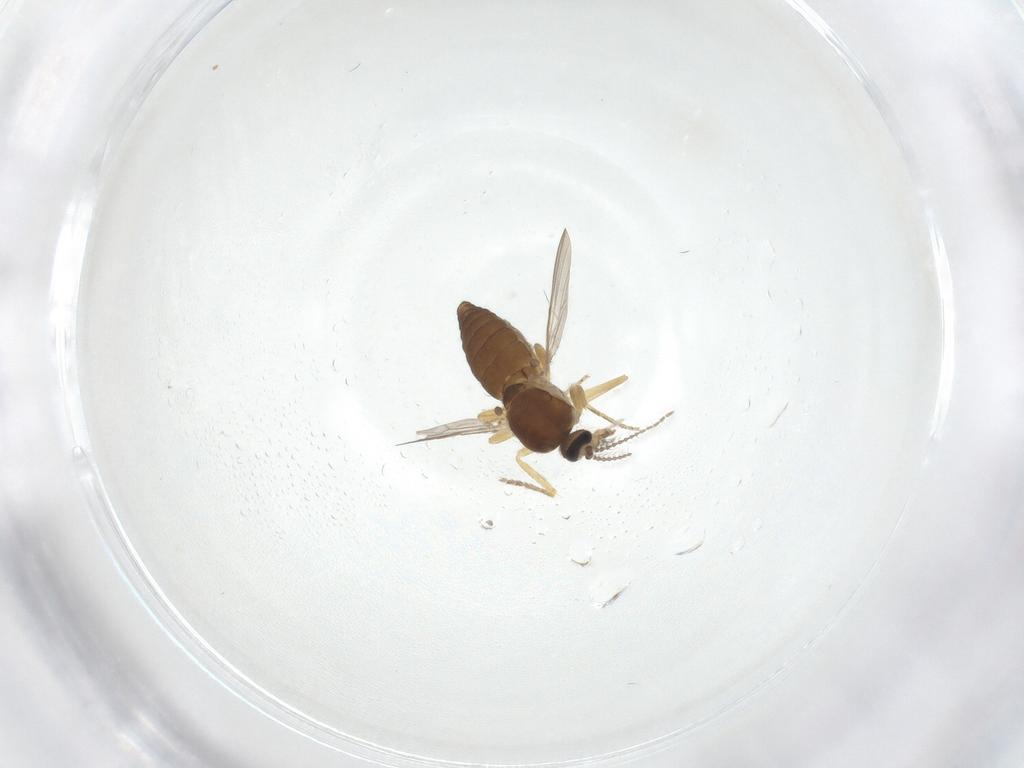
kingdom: Animalia
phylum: Arthropoda
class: Insecta
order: Diptera
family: Ceratopogonidae
